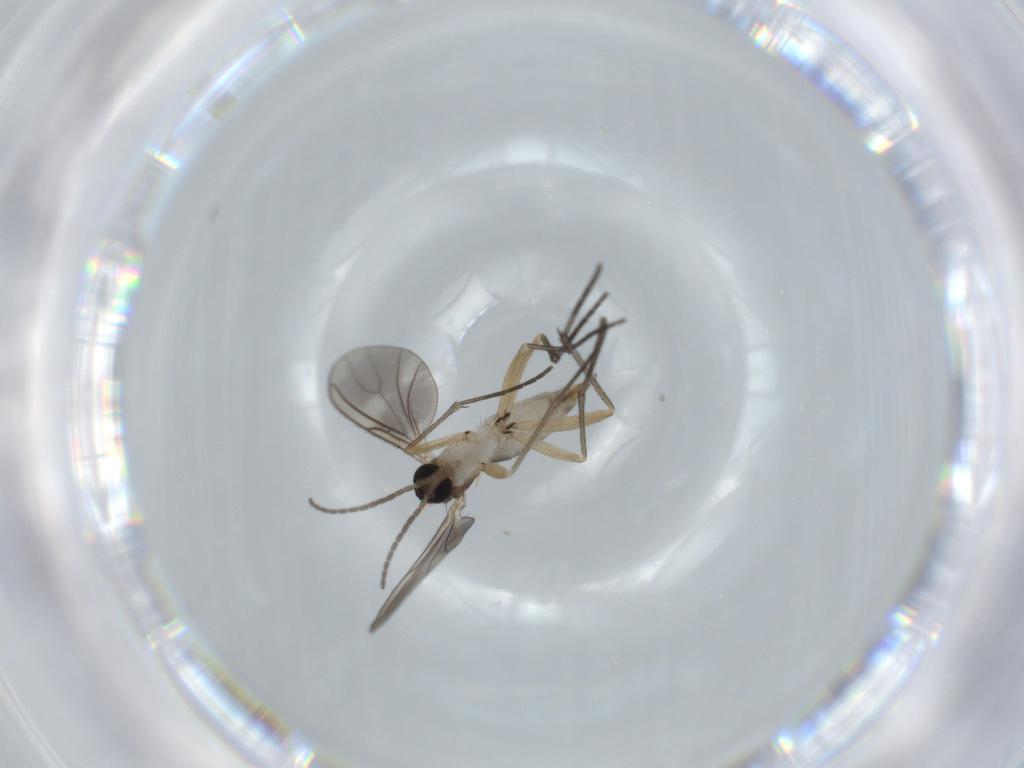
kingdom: Animalia
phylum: Arthropoda
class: Insecta
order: Diptera
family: Sciaridae
